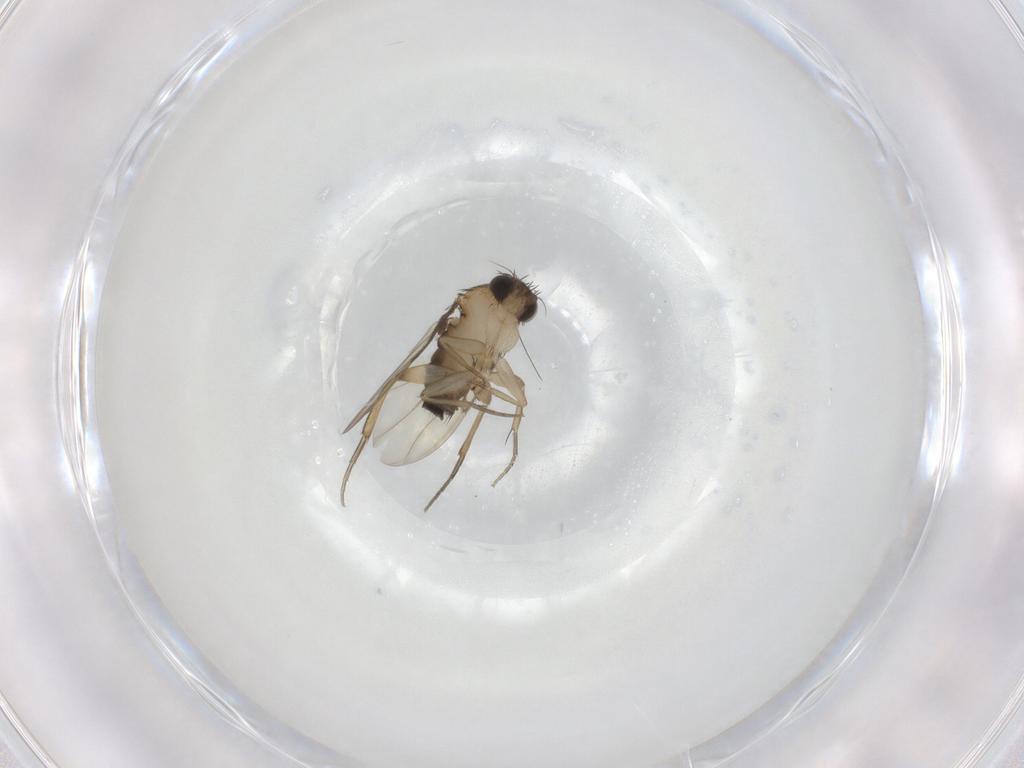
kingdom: Animalia
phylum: Arthropoda
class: Insecta
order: Diptera
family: Phoridae
